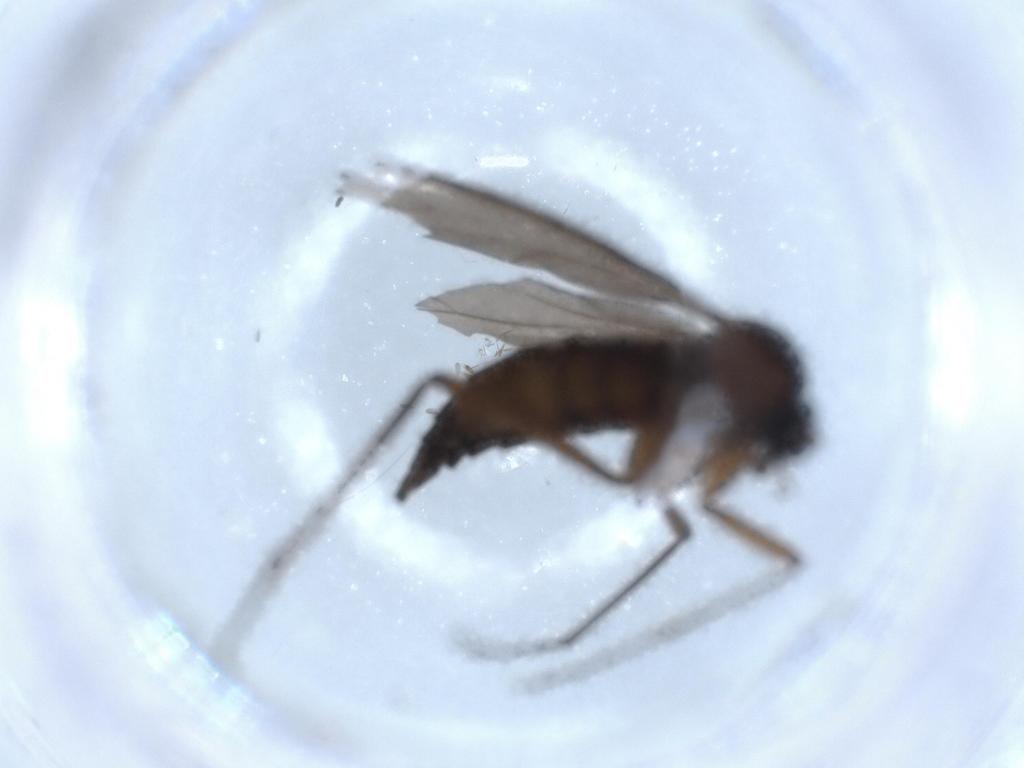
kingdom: Animalia
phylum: Arthropoda
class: Insecta
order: Diptera
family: Sciaridae
